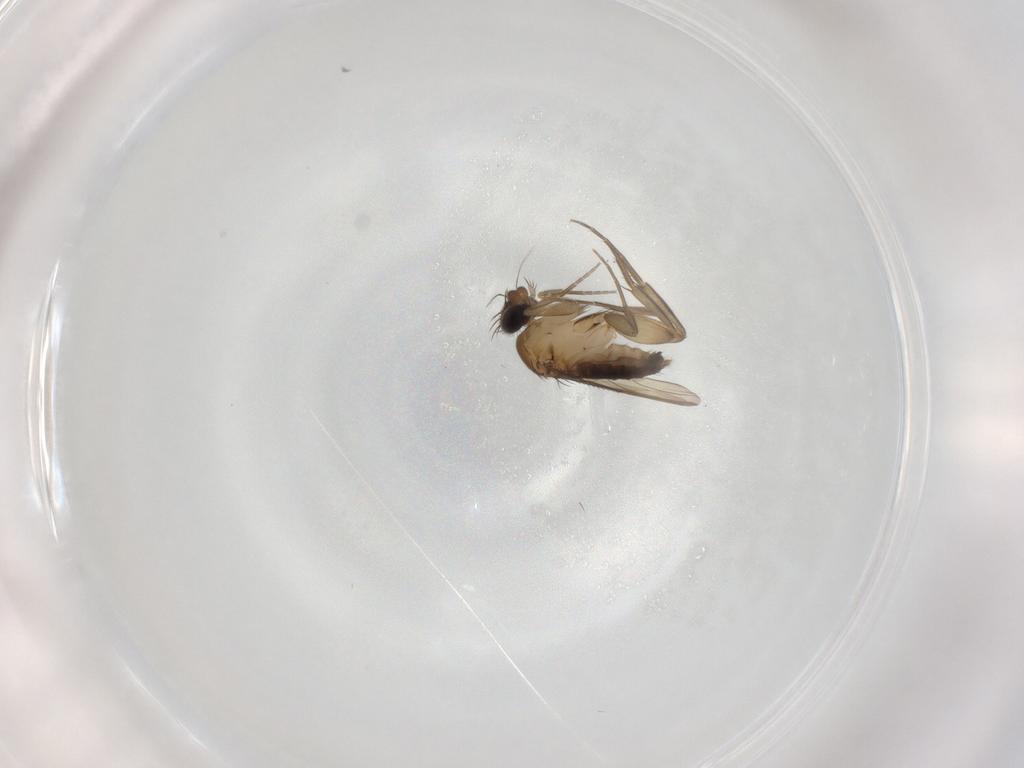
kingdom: Animalia
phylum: Arthropoda
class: Insecta
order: Diptera
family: Phoridae
